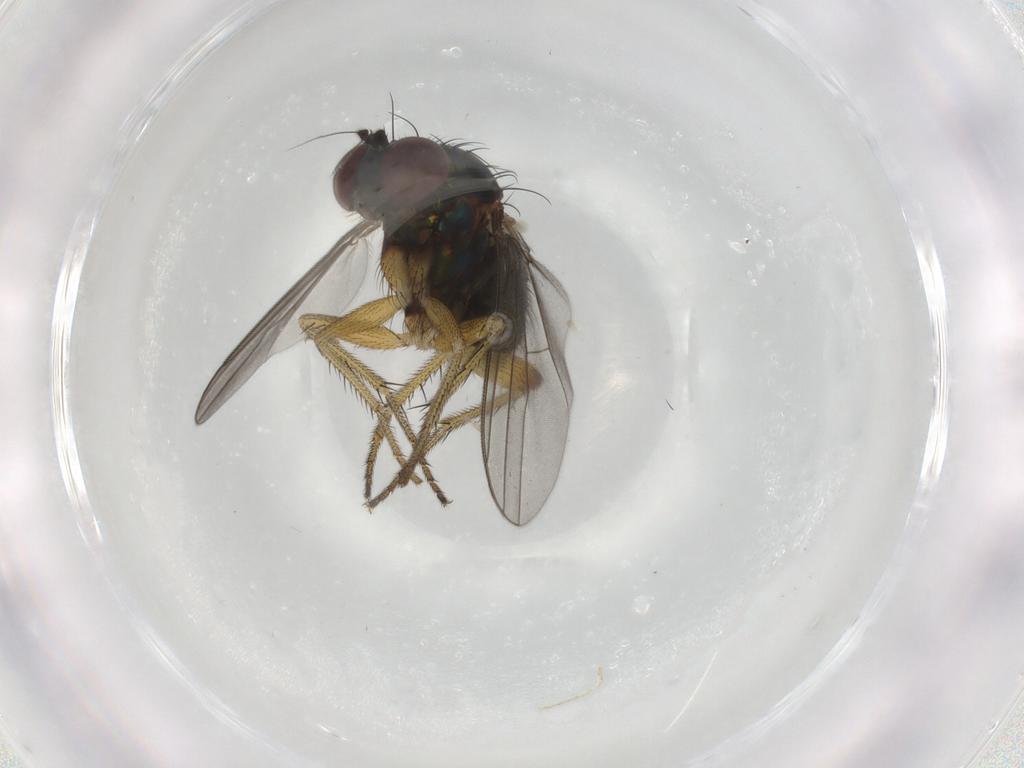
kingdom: Animalia
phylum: Arthropoda
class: Insecta
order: Diptera
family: Dolichopodidae
